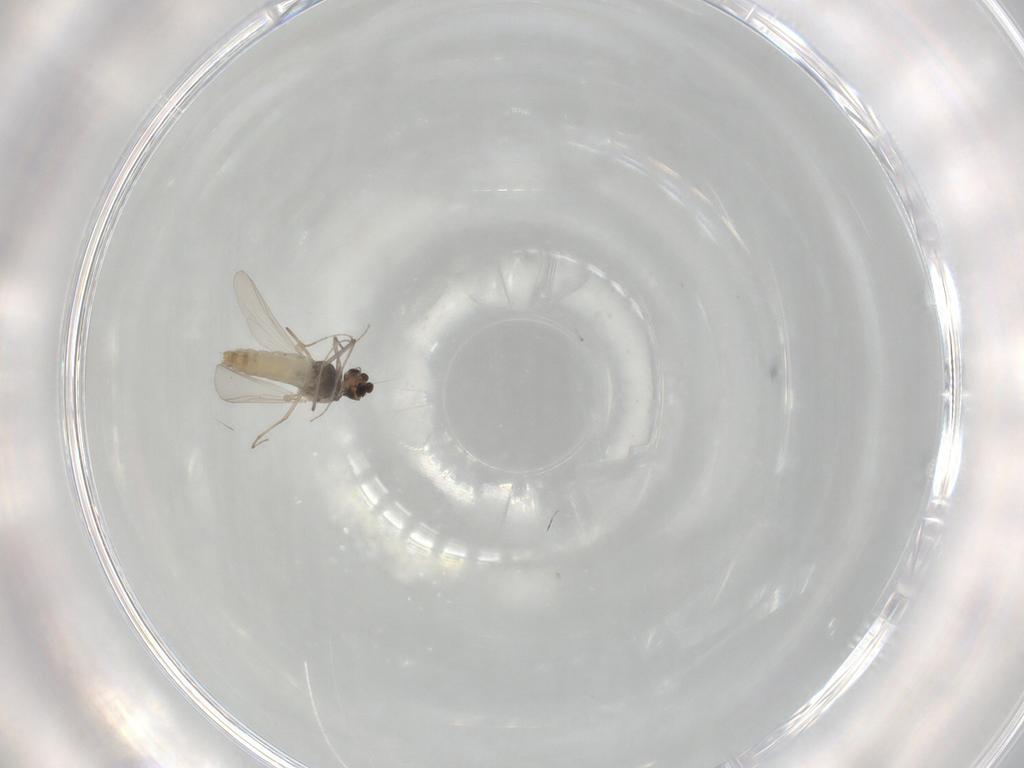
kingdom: Animalia
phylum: Arthropoda
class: Insecta
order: Diptera
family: Chironomidae
